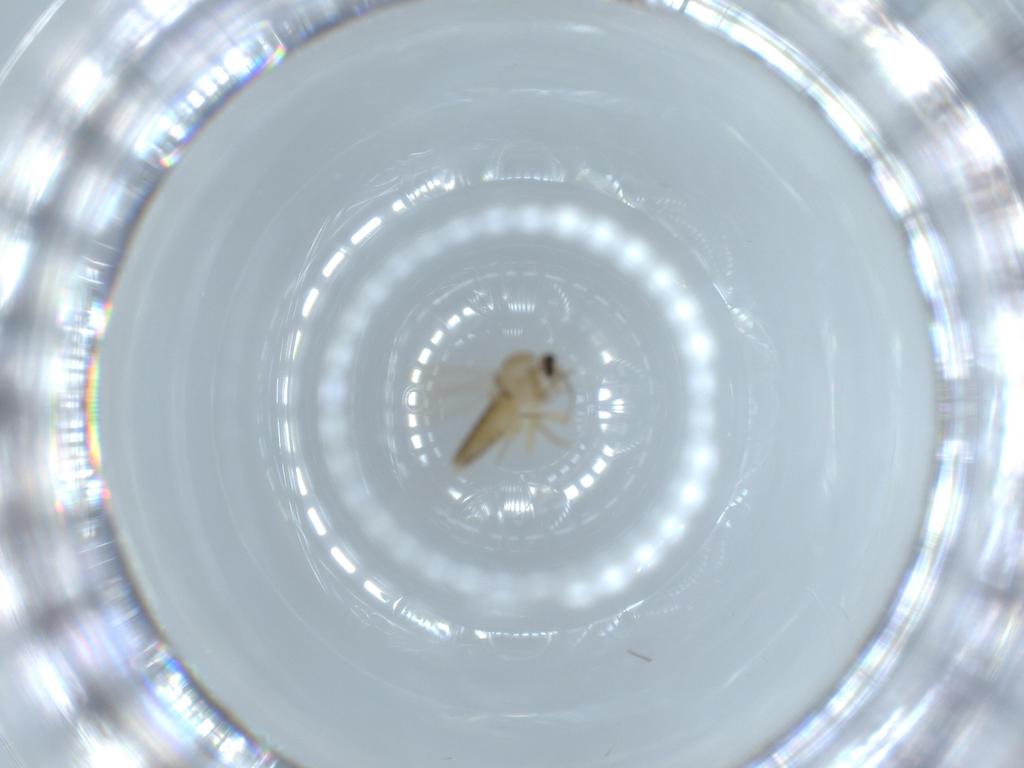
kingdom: Animalia
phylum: Arthropoda
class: Insecta
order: Diptera
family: Ceratopogonidae
